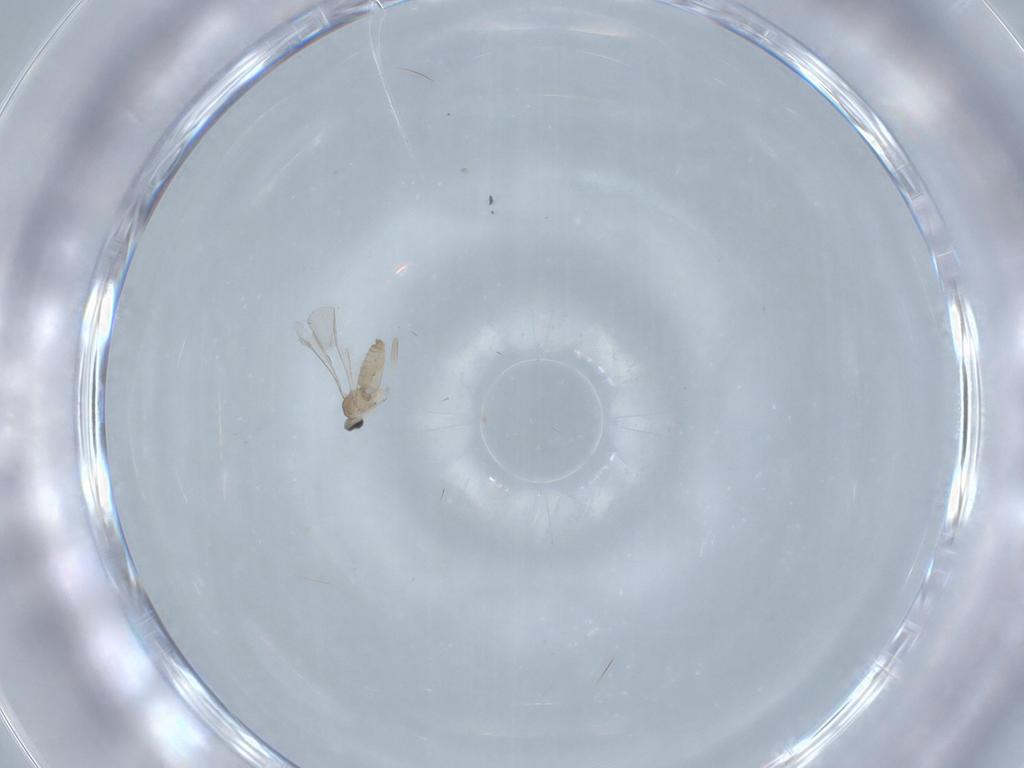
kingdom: Animalia
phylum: Arthropoda
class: Insecta
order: Diptera
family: Cecidomyiidae
